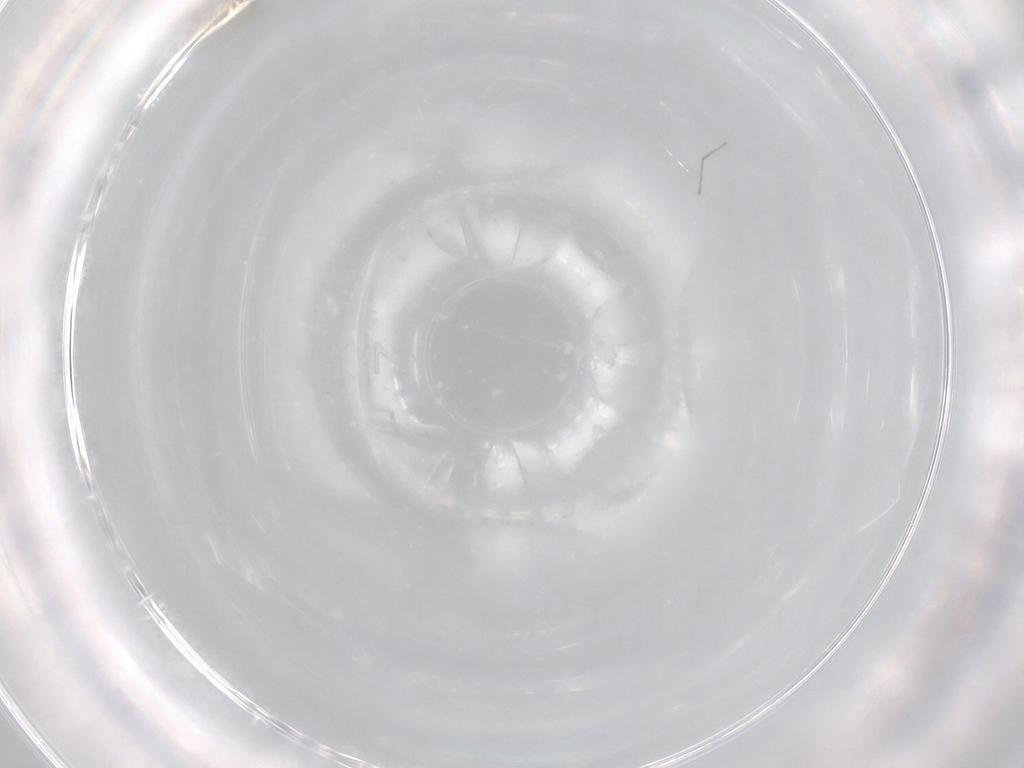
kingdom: Animalia
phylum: Arthropoda
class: Insecta
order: Diptera
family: Cecidomyiidae
